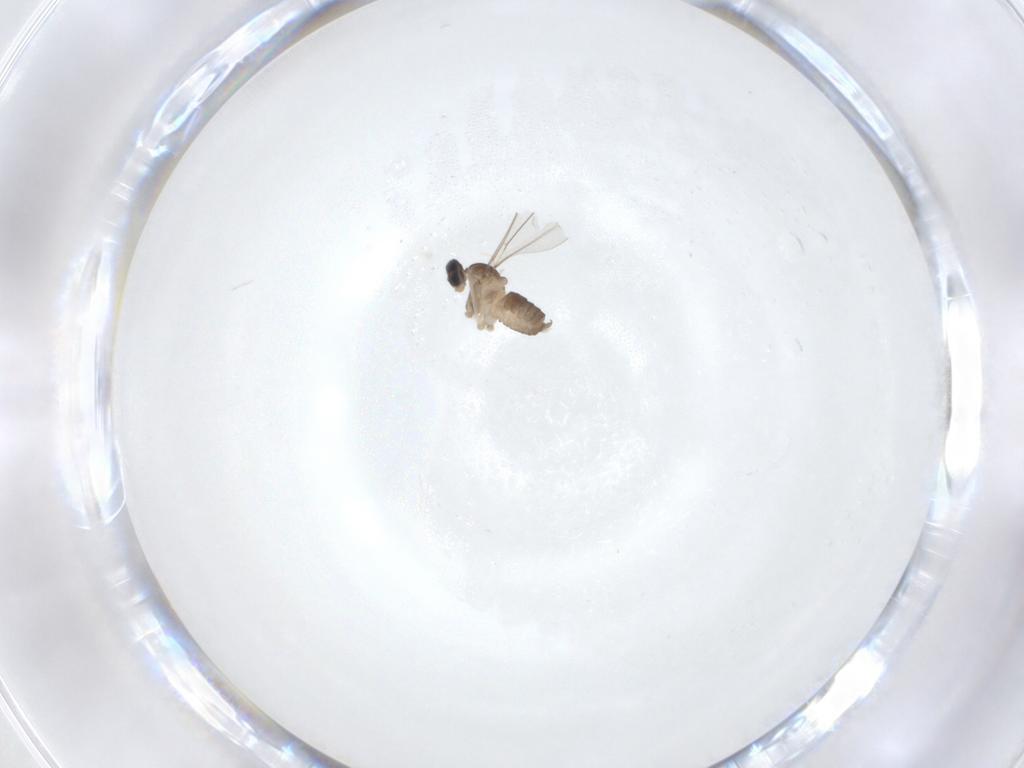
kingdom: Animalia
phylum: Arthropoda
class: Insecta
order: Diptera
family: Cecidomyiidae
